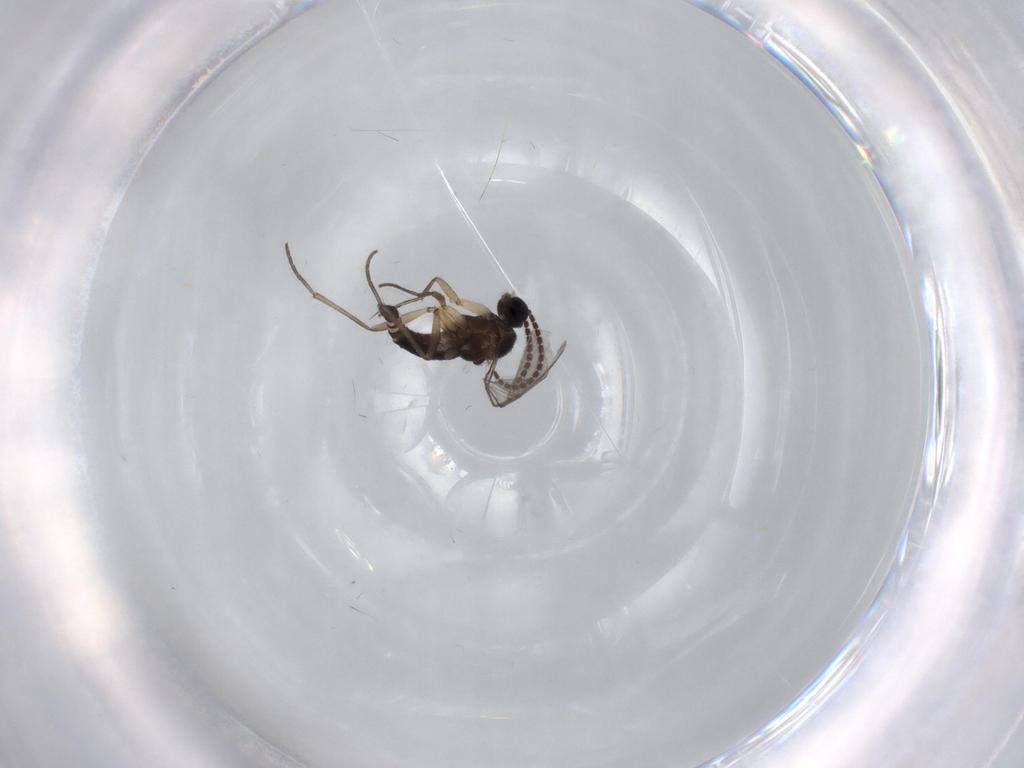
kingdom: Animalia
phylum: Arthropoda
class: Insecta
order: Diptera
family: Sciaridae
